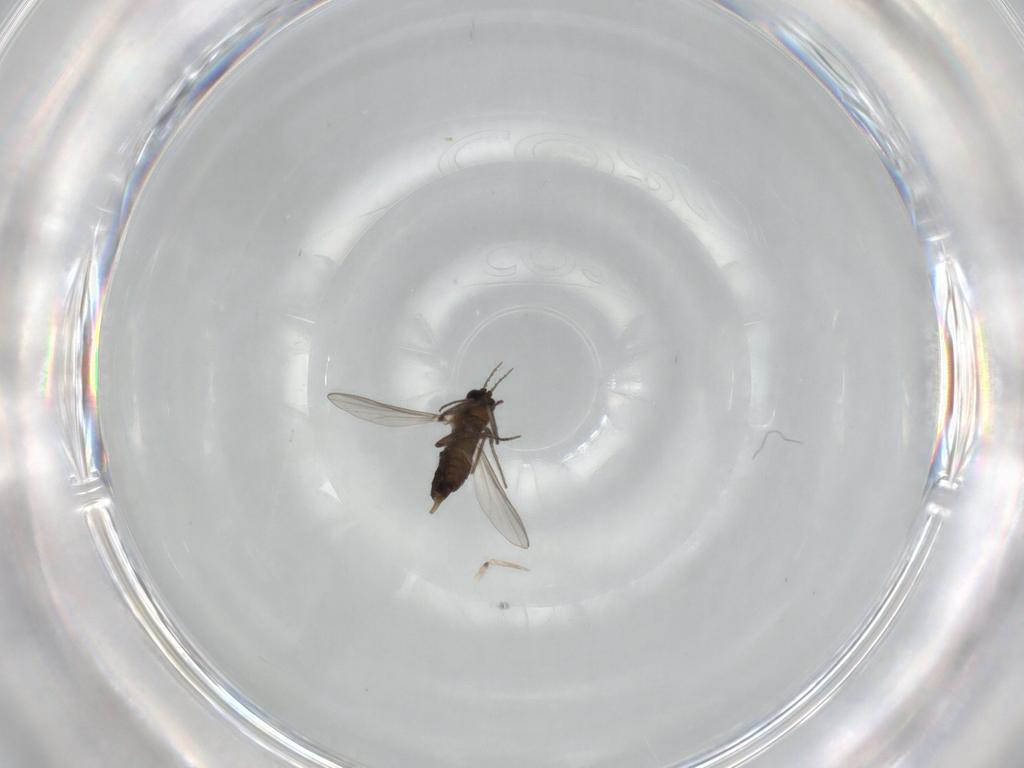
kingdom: Animalia
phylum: Arthropoda
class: Insecta
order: Diptera
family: Chironomidae
